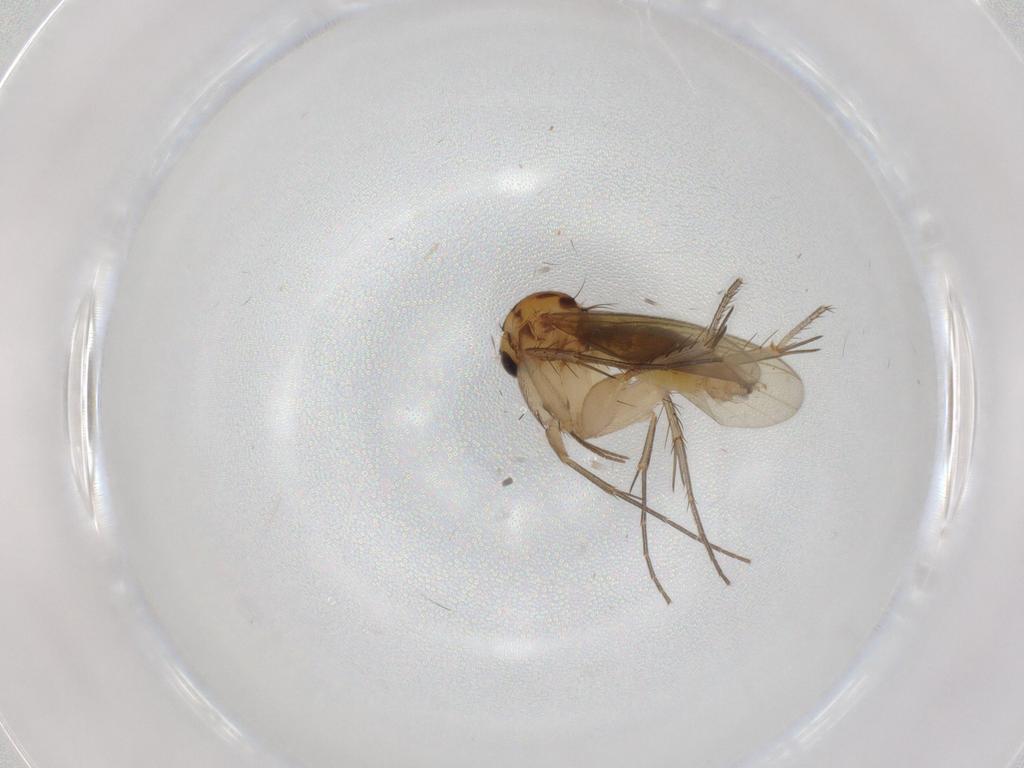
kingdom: Animalia
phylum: Arthropoda
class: Insecta
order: Diptera
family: Mycetophilidae
